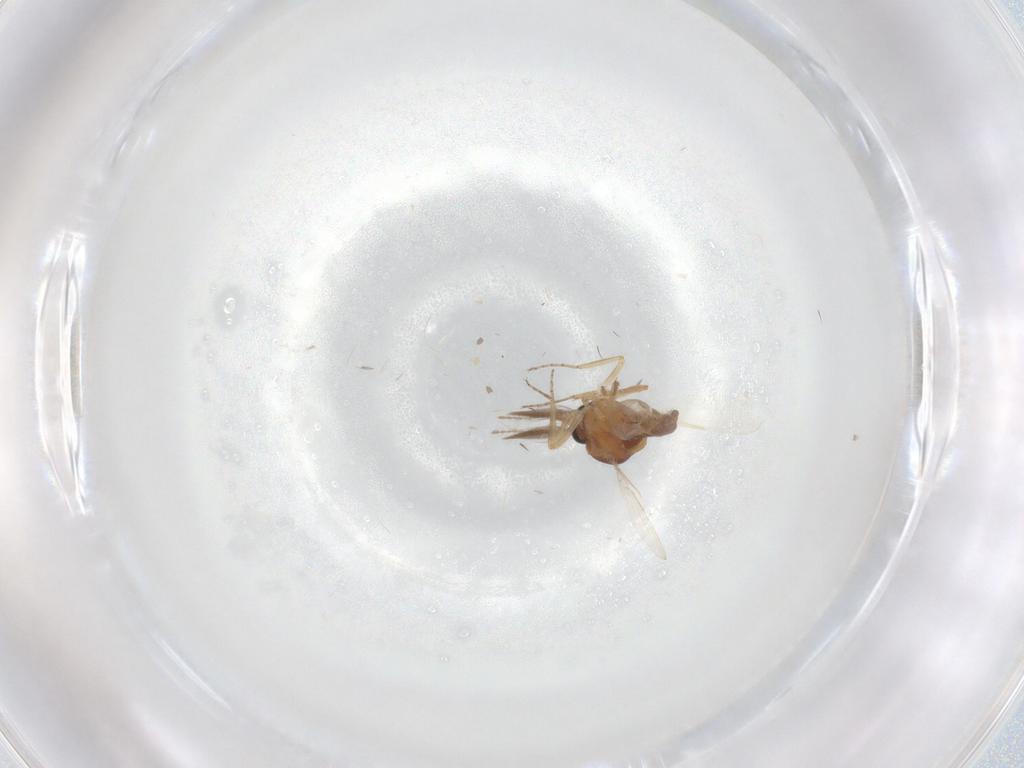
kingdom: Animalia
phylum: Arthropoda
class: Insecta
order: Diptera
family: Ceratopogonidae
